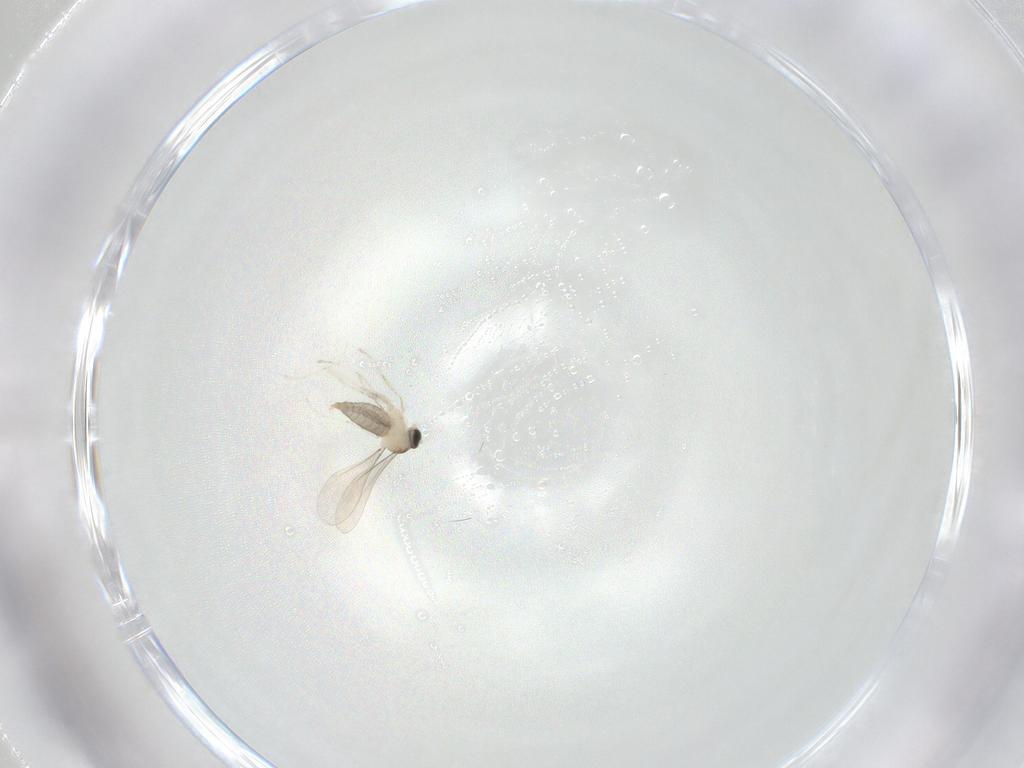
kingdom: Animalia
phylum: Arthropoda
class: Insecta
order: Diptera
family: Cecidomyiidae
